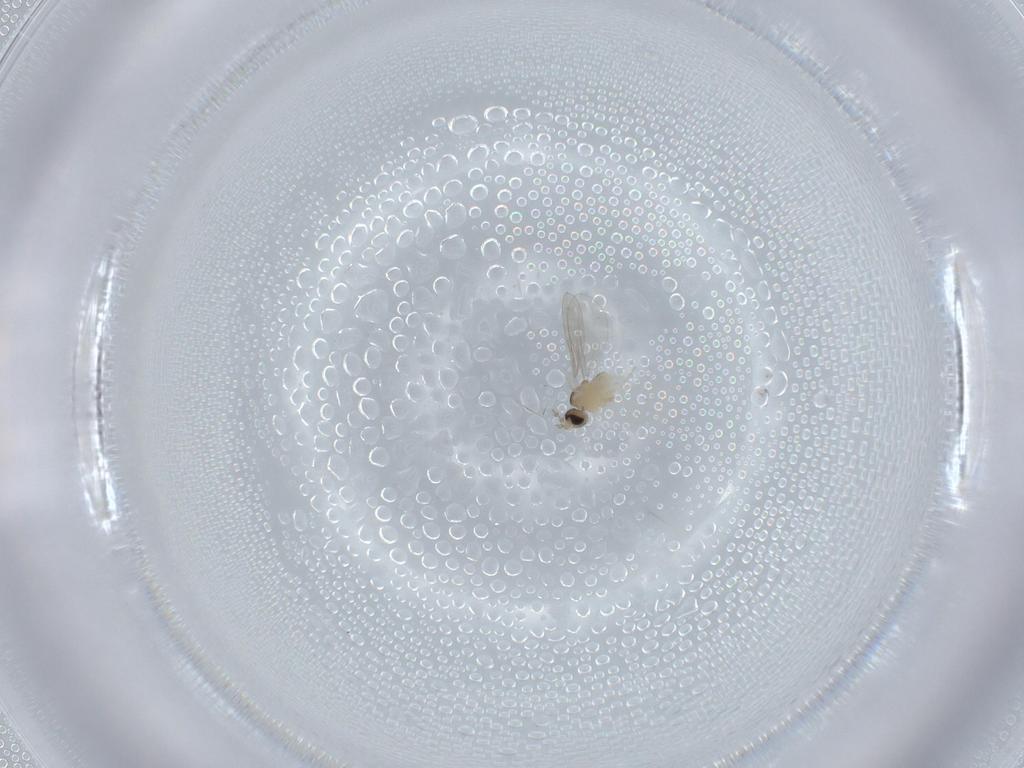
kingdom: Animalia
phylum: Arthropoda
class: Insecta
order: Diptera
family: Cecidomyiidae
